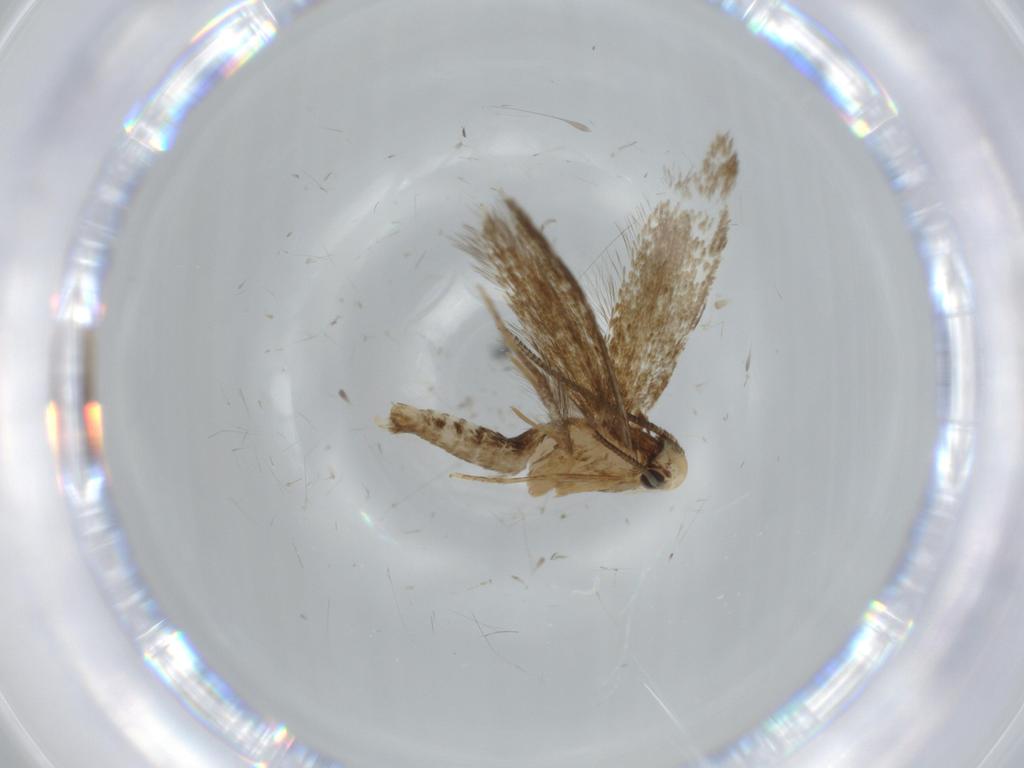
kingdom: Animalia
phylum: Arthropoda
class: Insecta
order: Lepidoptera
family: Tineidae
